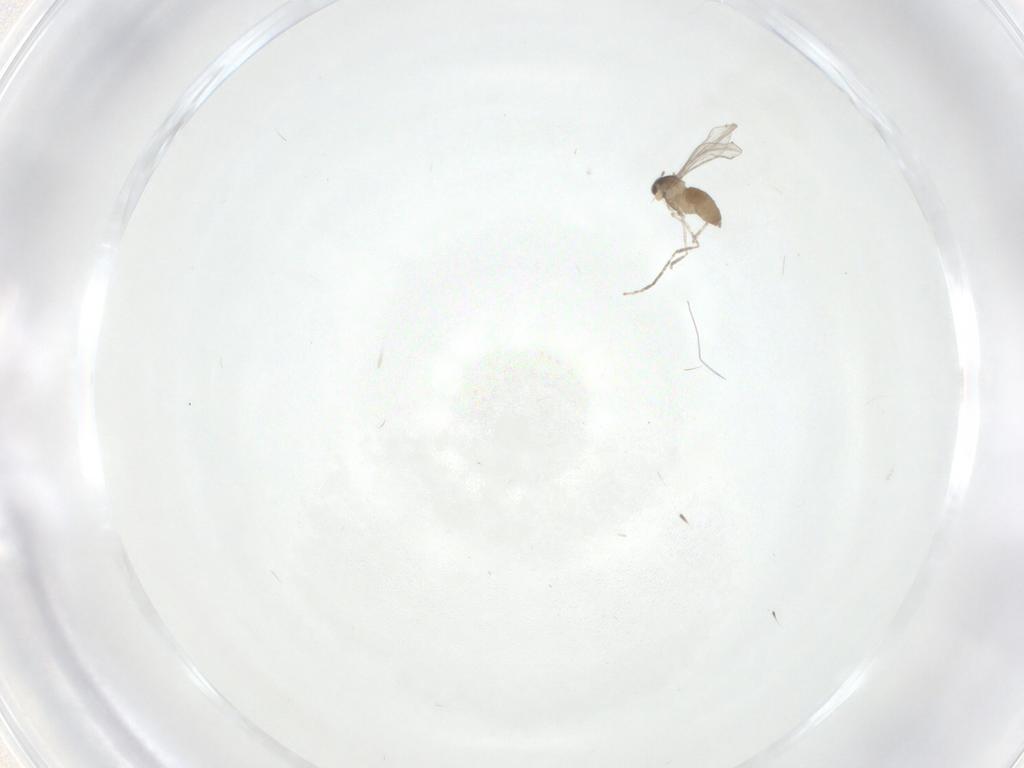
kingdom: Animalia
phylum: Arthropoda
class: Insecta
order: Diptera
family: Cecidomyiidae
